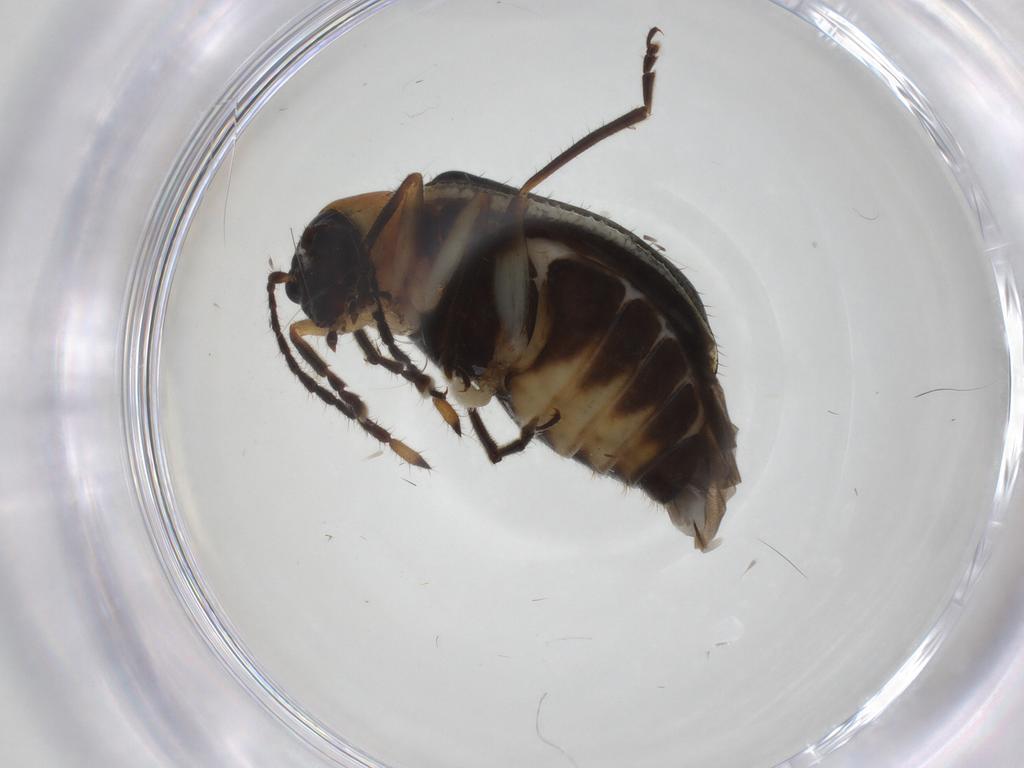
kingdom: Animalia
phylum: Arthropoda
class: Insecta
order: Coleoptera
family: Chrysomelidae
